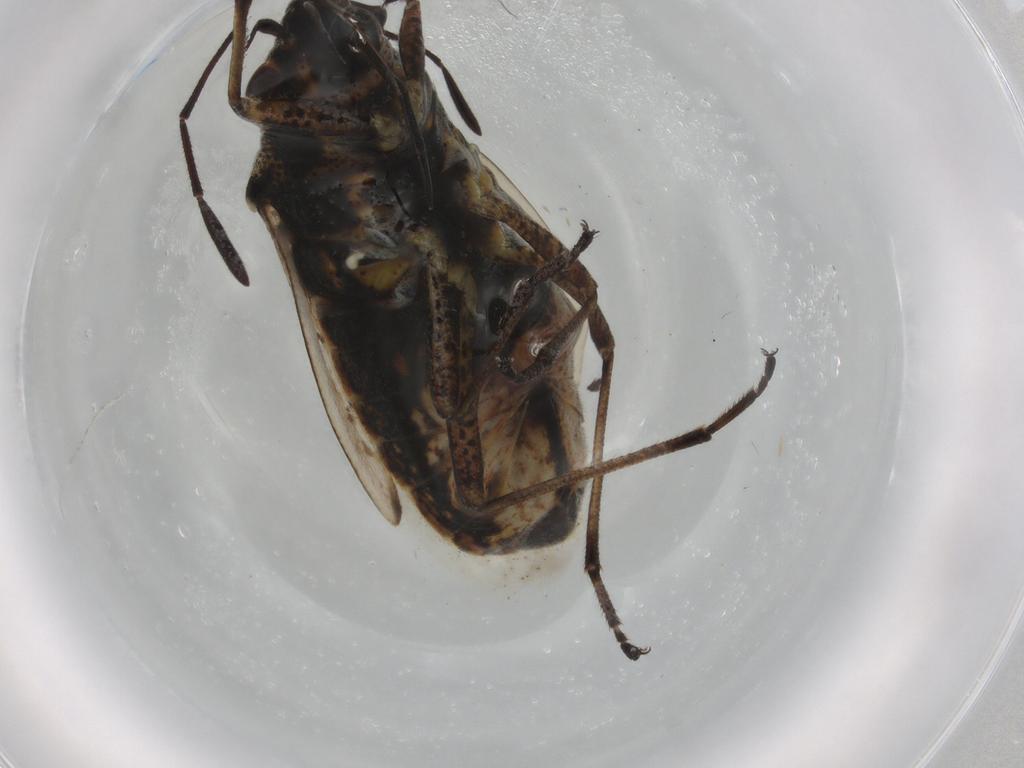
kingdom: Animalia
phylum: Arthropoda
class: Insecta
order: Hemiptera
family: Lygaeidae
